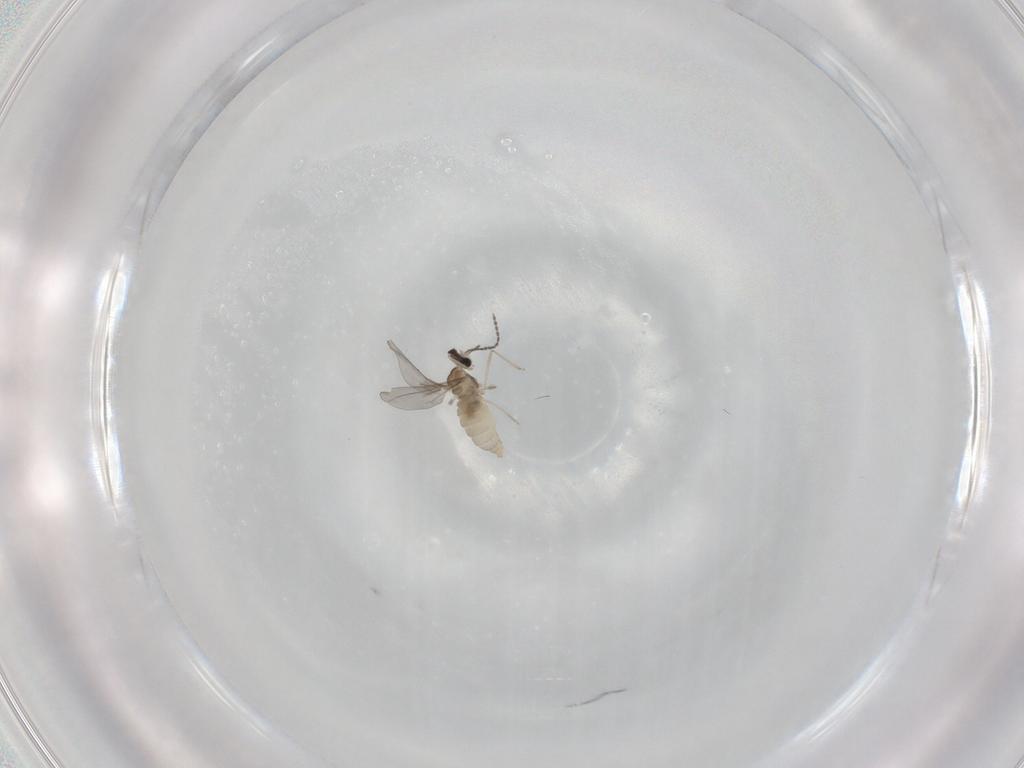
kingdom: Animalia
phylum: Arthropoda
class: Insecta
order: Diptera
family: Cecidomyiidae
